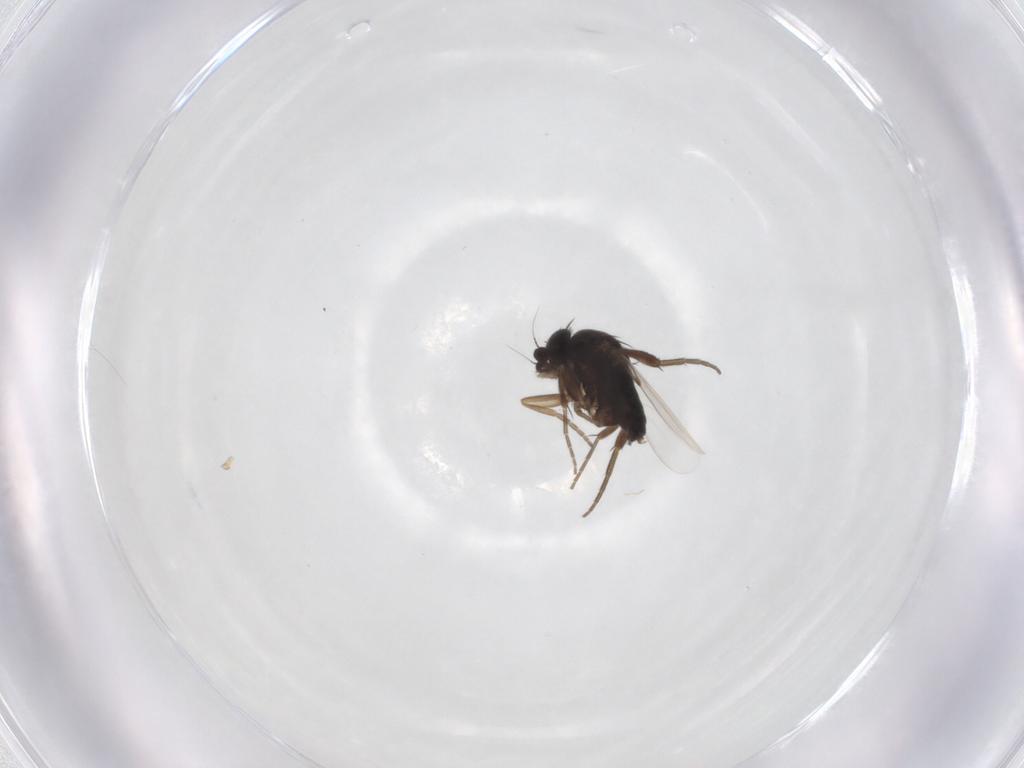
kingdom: Animalia
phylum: Arthropoda
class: Insecta
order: Diptera
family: Phoridae
